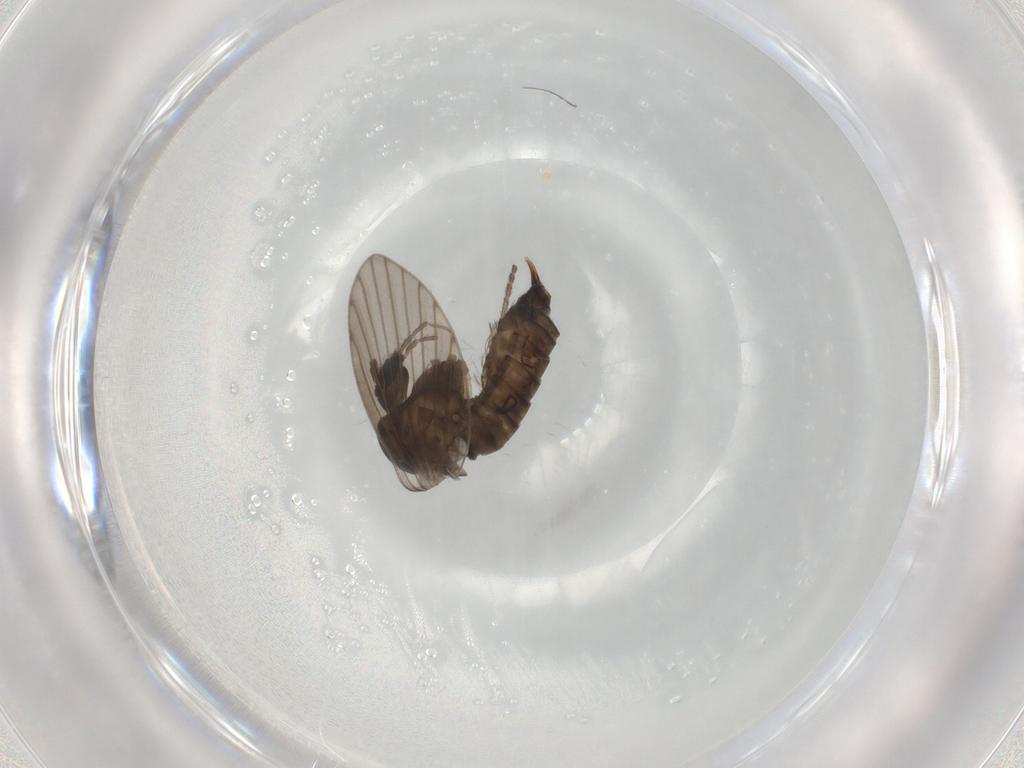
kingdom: Animalia
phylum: Arthropoda
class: Insecta
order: Diptera
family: Psychodidae
